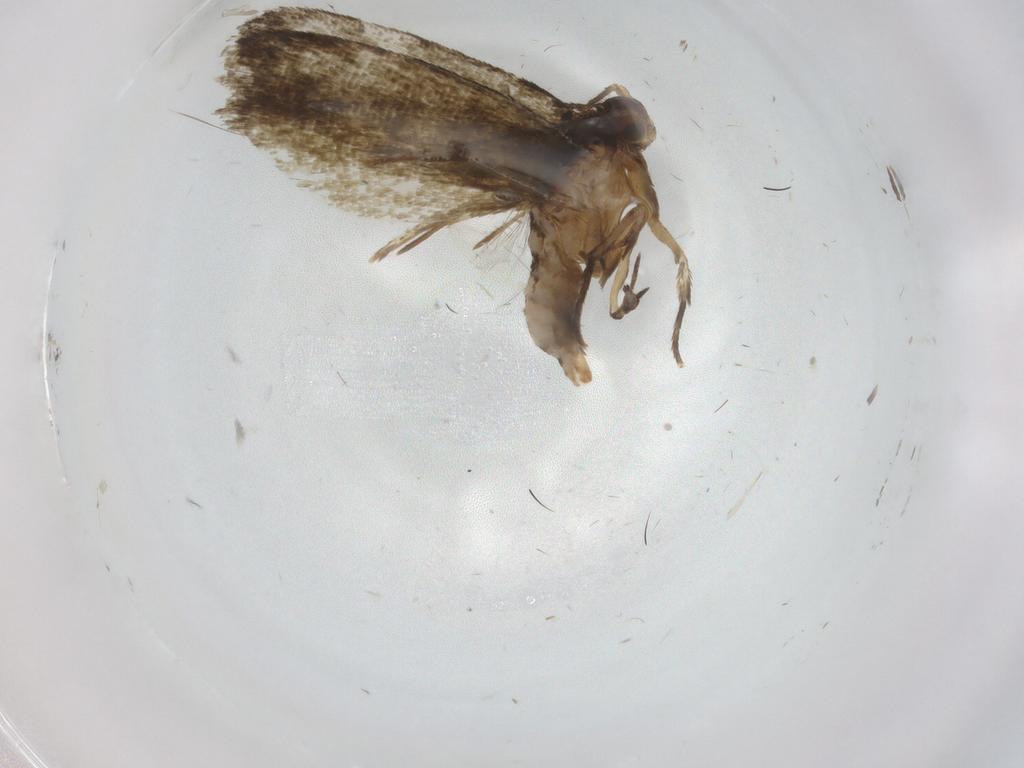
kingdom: Animalia
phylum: Arthropoda
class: Insecta
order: Lepidoptera
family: Tineidae
